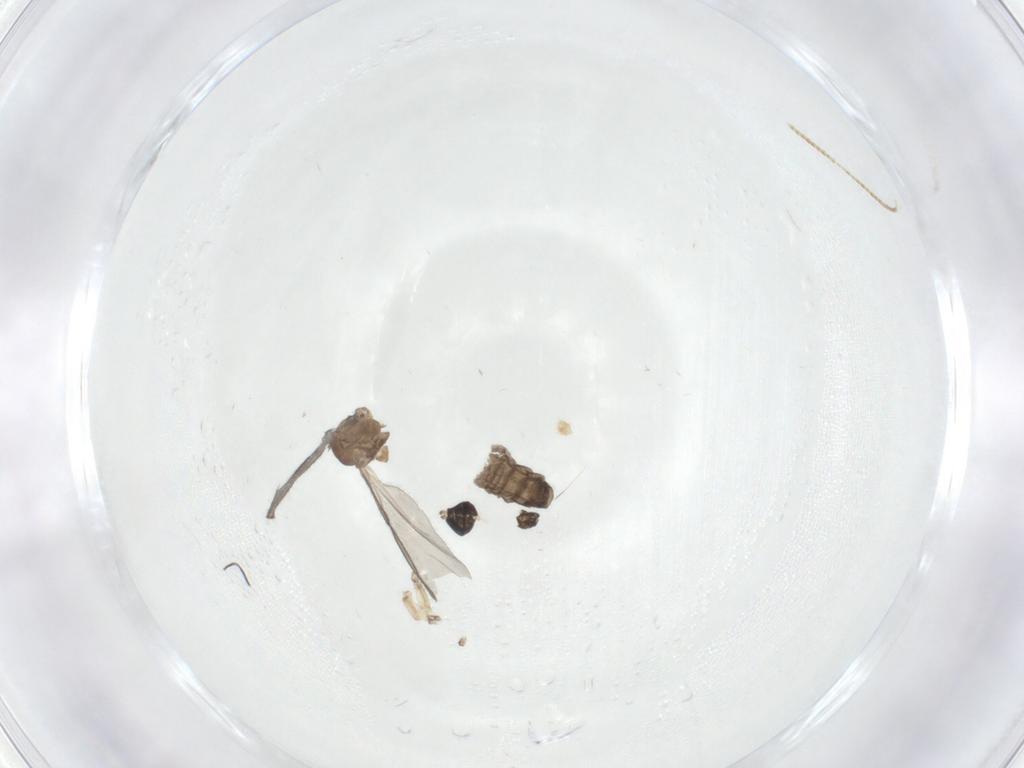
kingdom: Animalia
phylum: Arthropoda
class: Insecta
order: Diptera
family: Sciaridae
